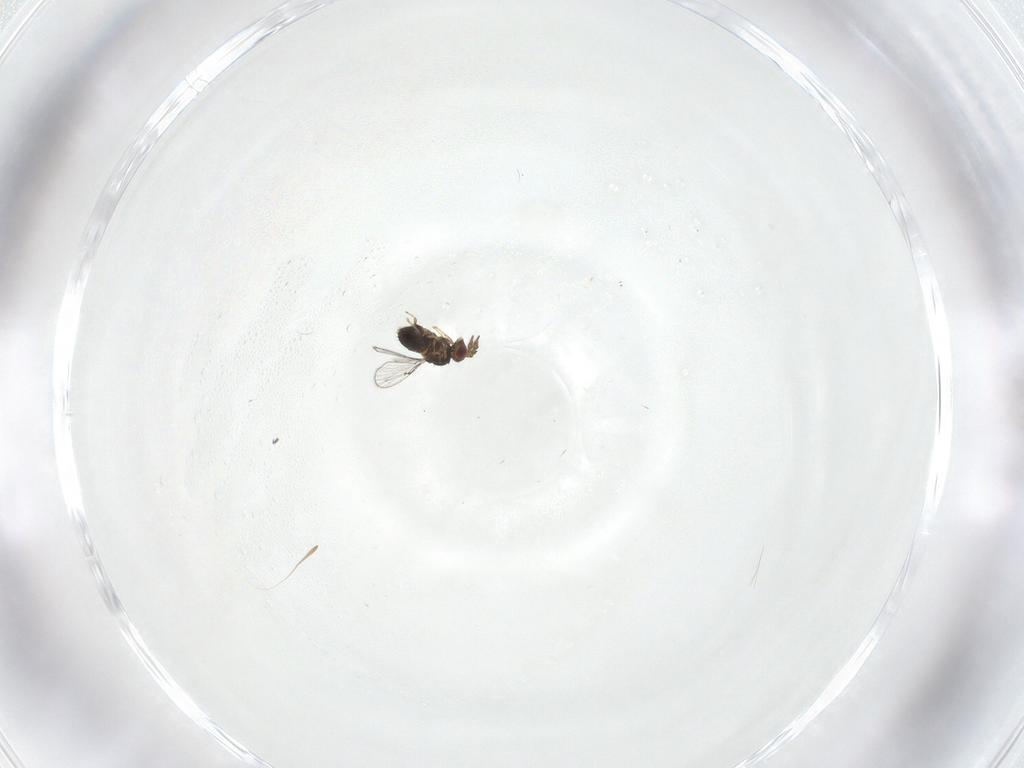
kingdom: Animalia
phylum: Arthropoda
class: Insecta
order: Hymenoptera
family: Trichogrammatidae
